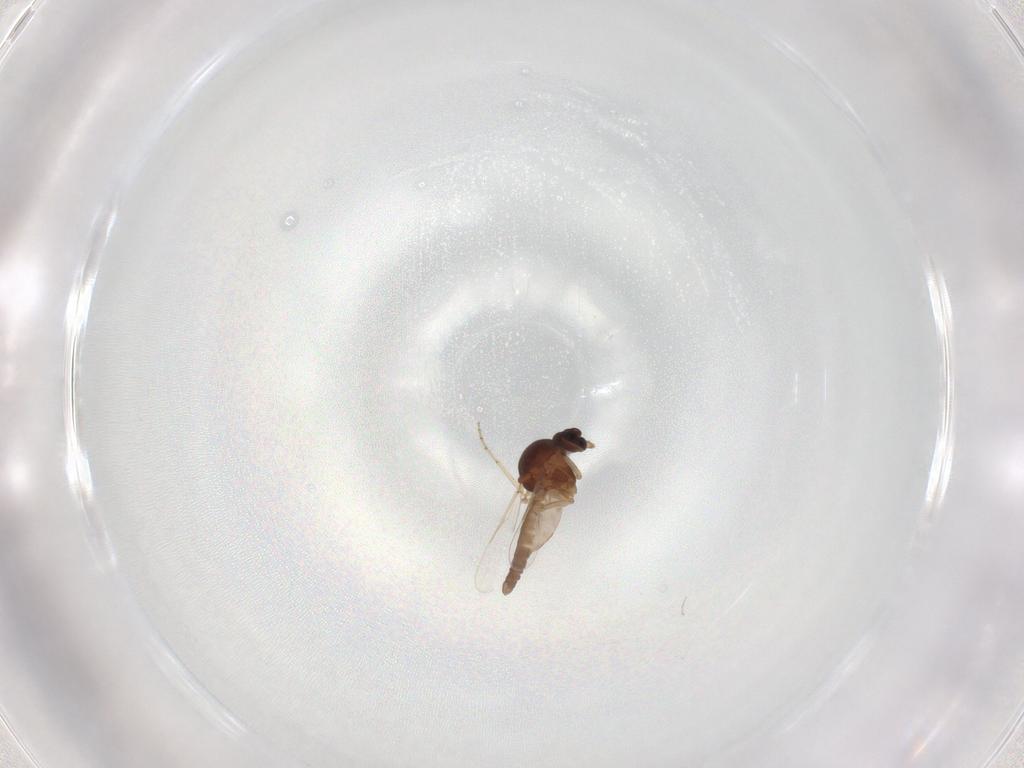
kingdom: Animalia
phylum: Arthropoda
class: Insecta
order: Diptera
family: Ceratopogonidae
